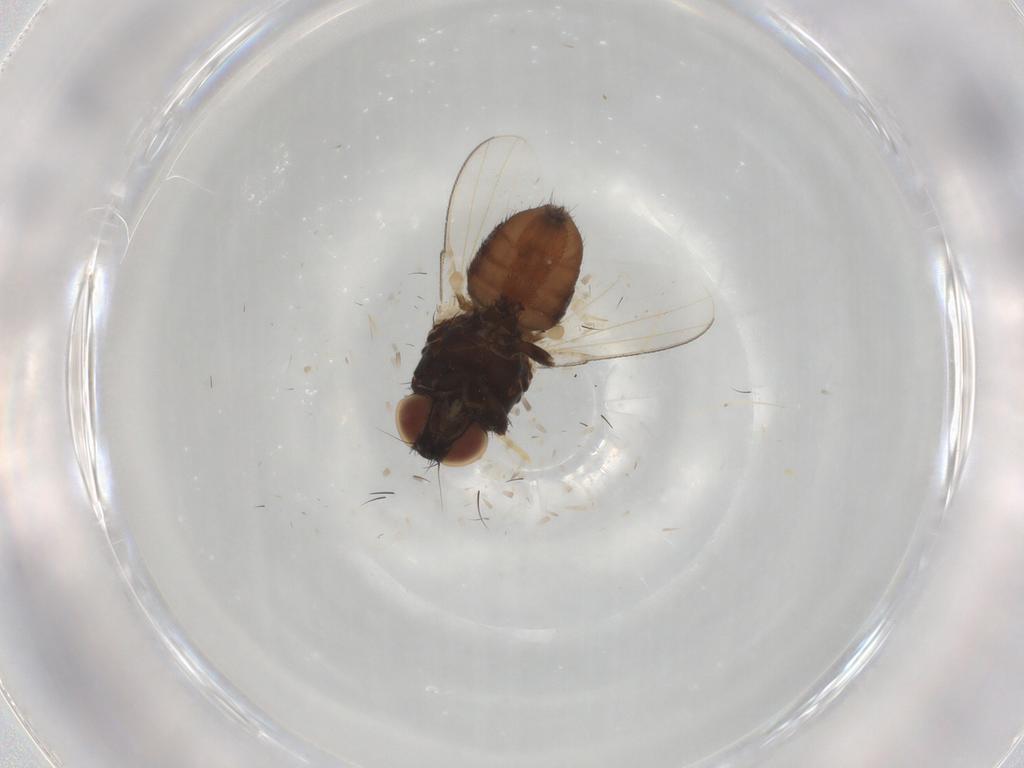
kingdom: Animalia
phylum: Arthropoda
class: Insecta
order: Diptera
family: Milichiidae
